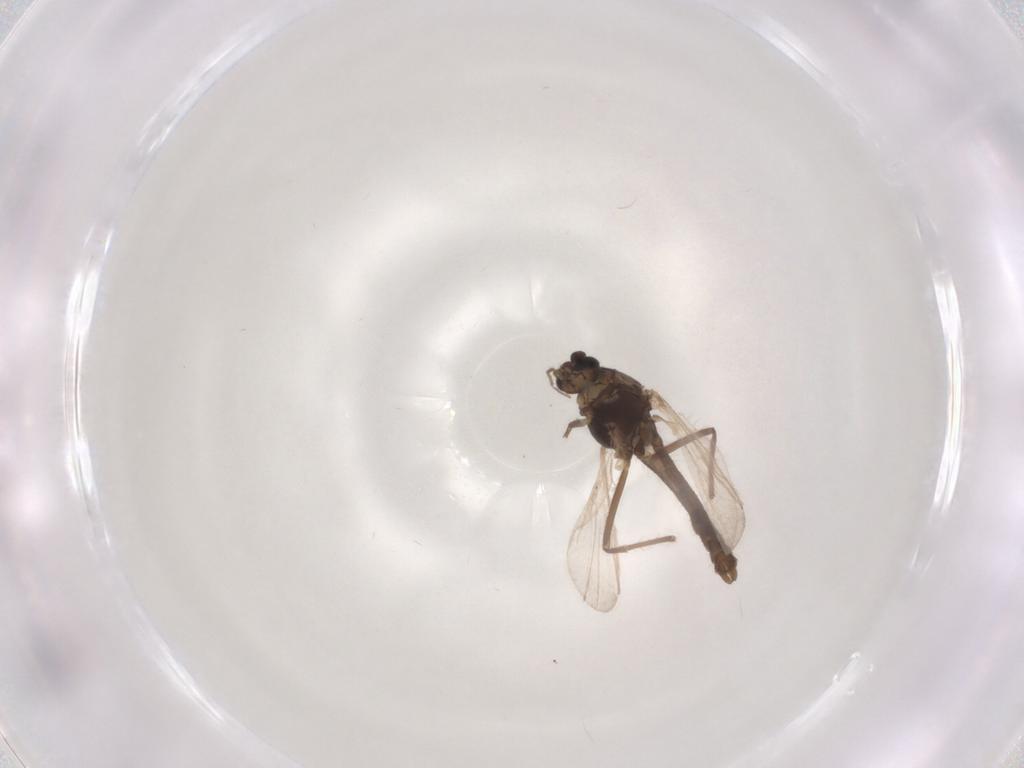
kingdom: Animalia
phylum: Arthropoda
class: Insecta
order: Diptera
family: Chironomidae
